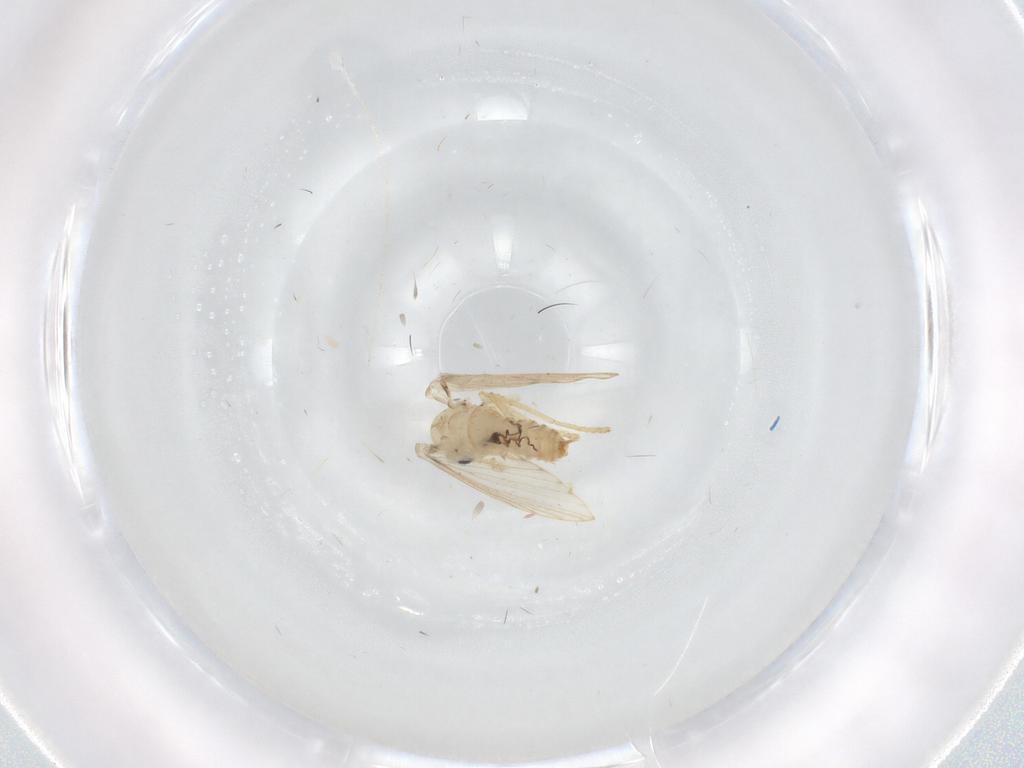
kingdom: Animalia
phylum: Arthropoda
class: Insecta
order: Diptera
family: Psychodidae
